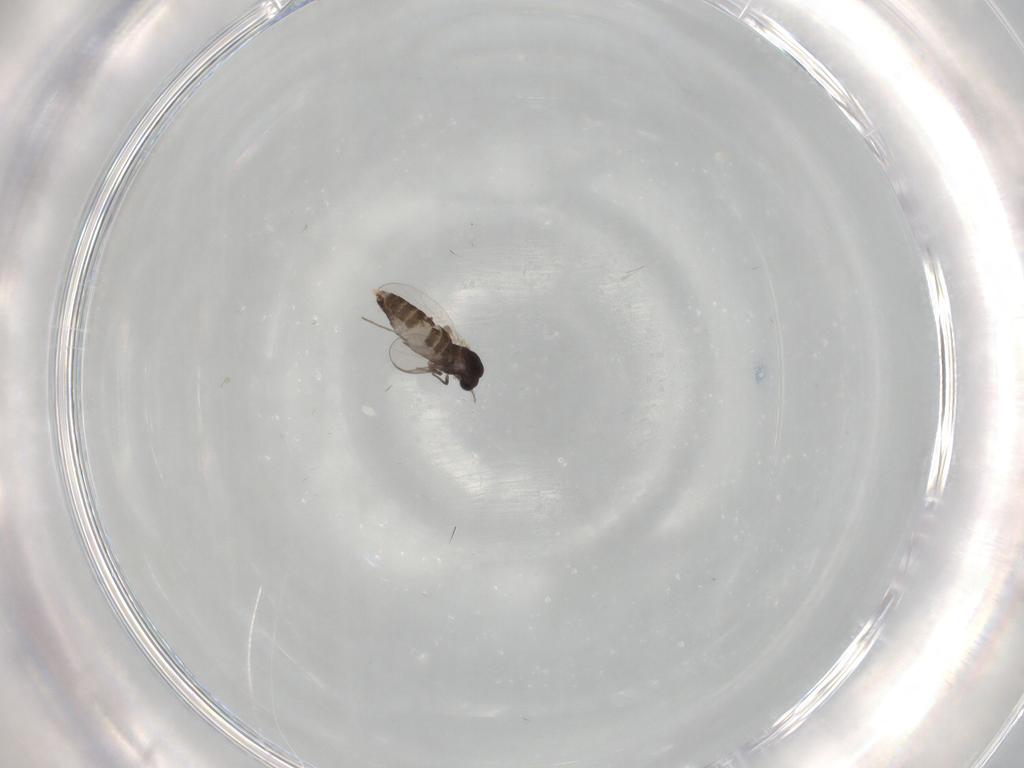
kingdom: Animalia
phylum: Arthropoda
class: Insecta
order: Diptera
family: Chironomidae
